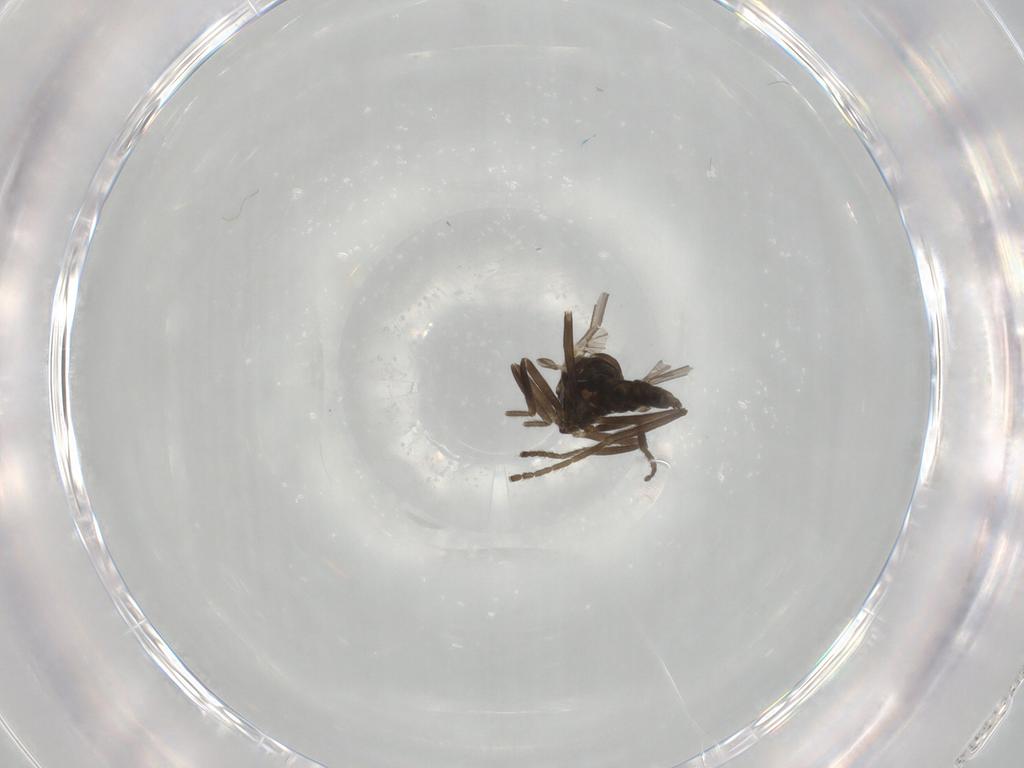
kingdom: Animalia
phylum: Arthropoda
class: Insecta
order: Diptera
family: Cecidomyiidae
